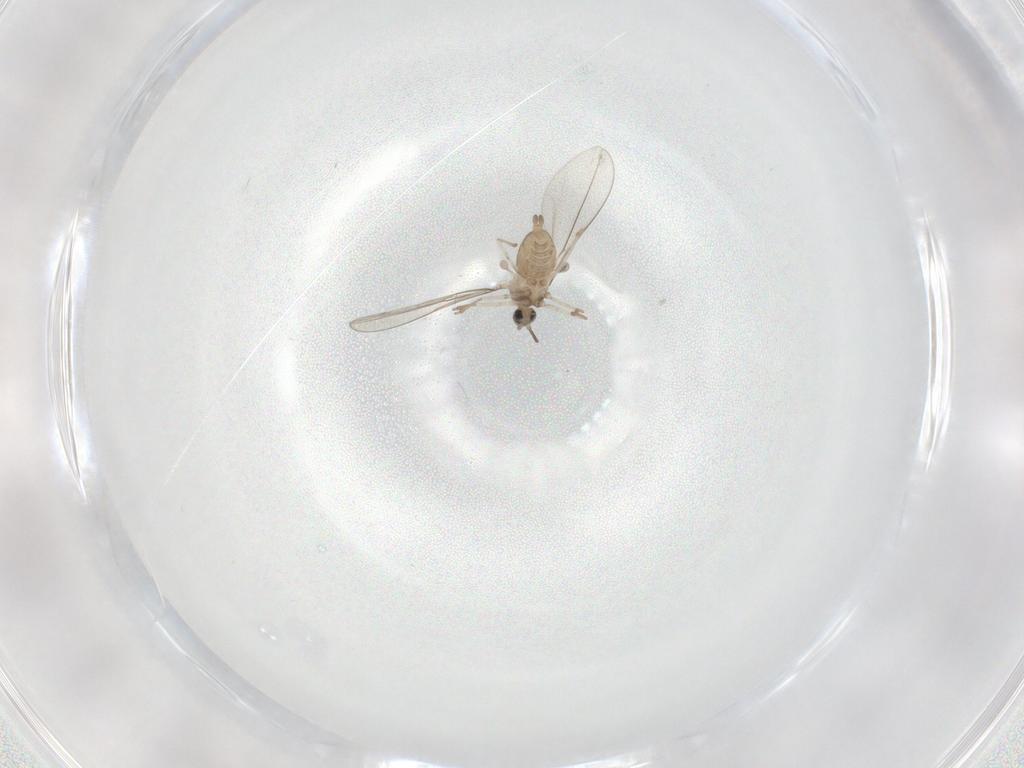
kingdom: Animalia
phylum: Arthropoda
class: Insecta
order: Diptera
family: Cecidomyiidae
